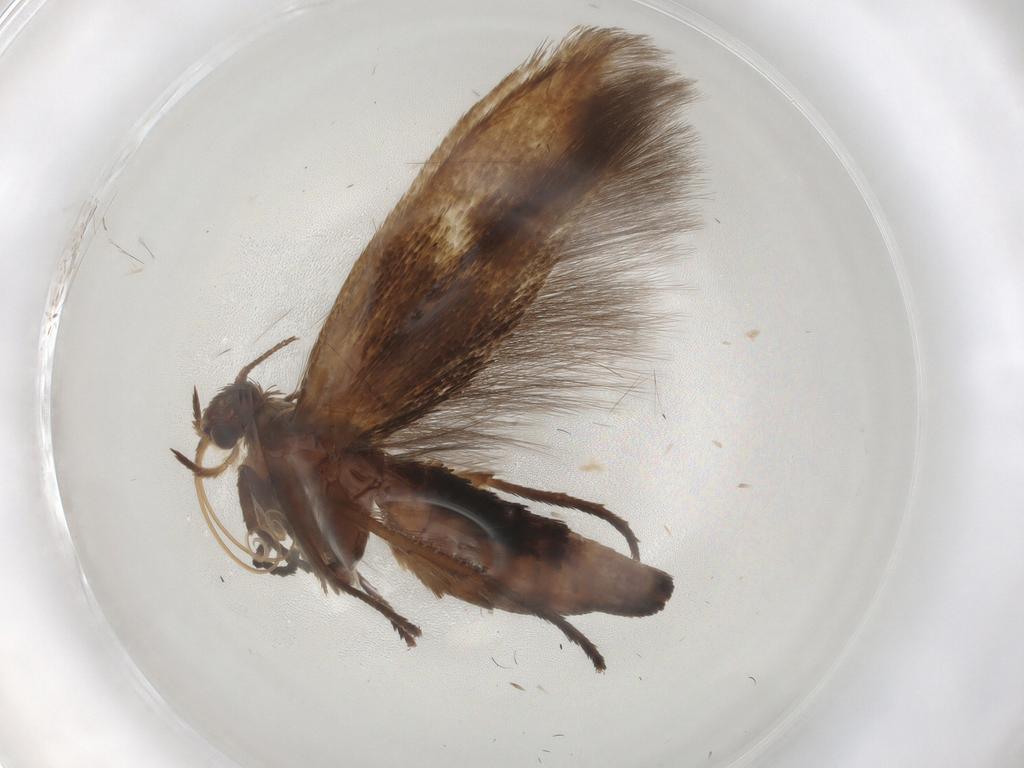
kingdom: Animalia
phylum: Arthropoda
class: Insecta
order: Lepidoptera
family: Scythrididae
